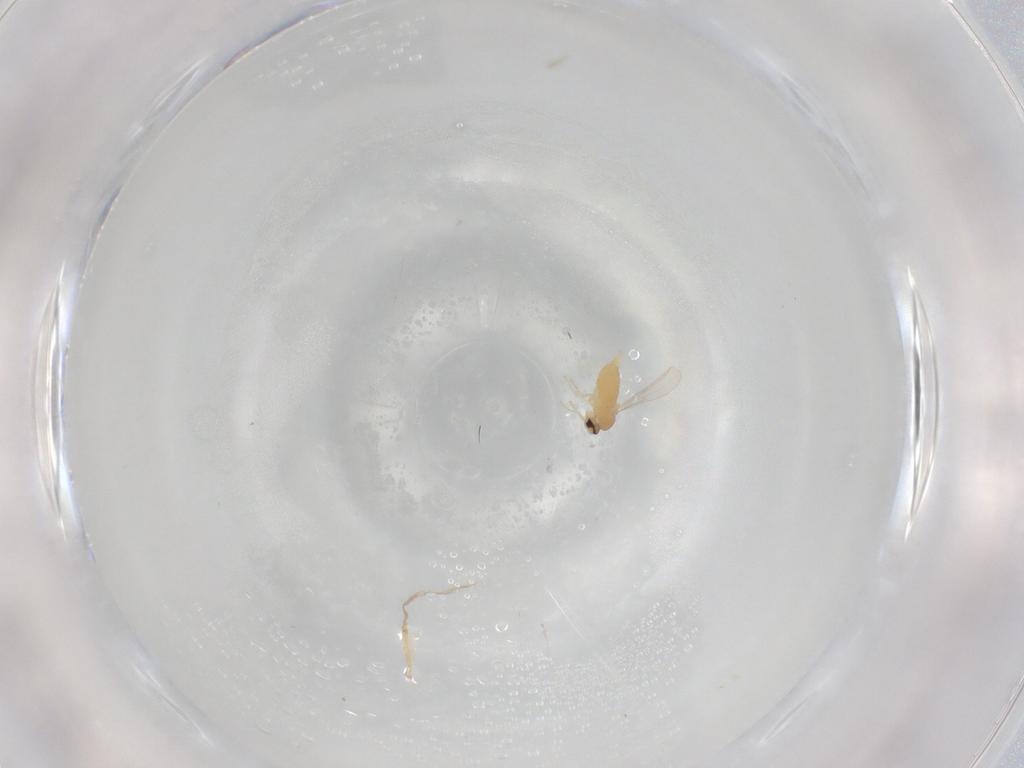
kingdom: Animalia
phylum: Arthropoda
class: Insecta
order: Diptera
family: Cecidomyiidae
